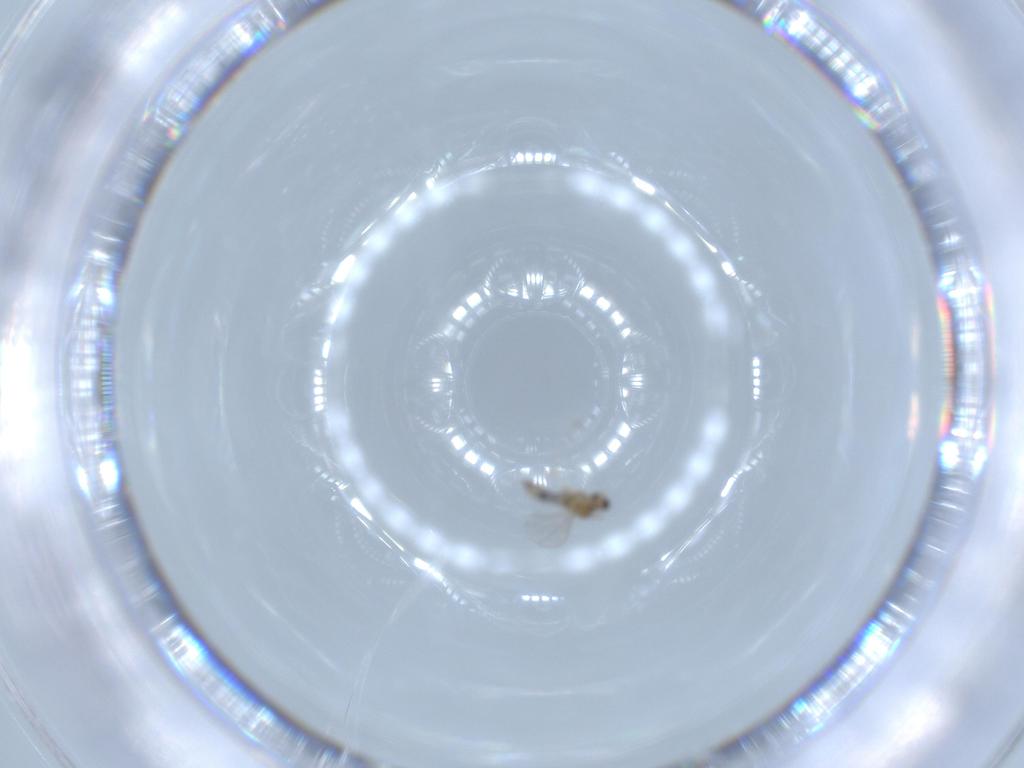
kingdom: Animalia
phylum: Arthropoda
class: Insecta
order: Diptera
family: Cecidomyiidae
